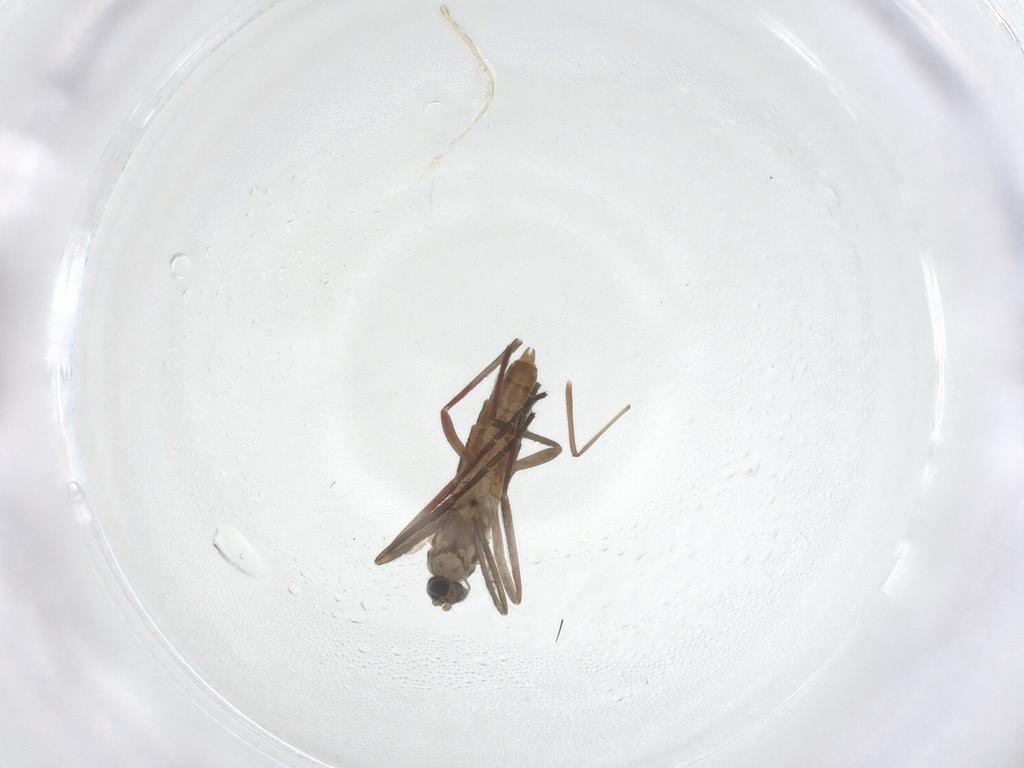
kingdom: Animalia
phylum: Arthropoda
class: Insecta
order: Diptera
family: Cecidomyiidae
